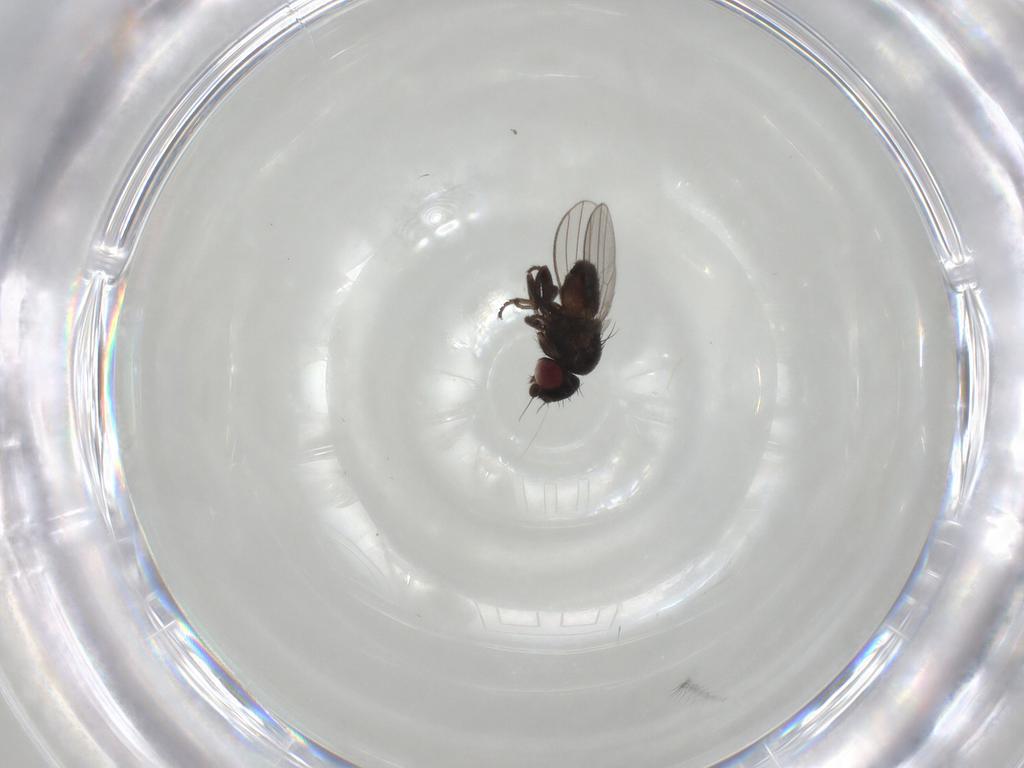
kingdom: Animalia
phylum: Arthropoda
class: Insecta
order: Diptera
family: Milichiidae
